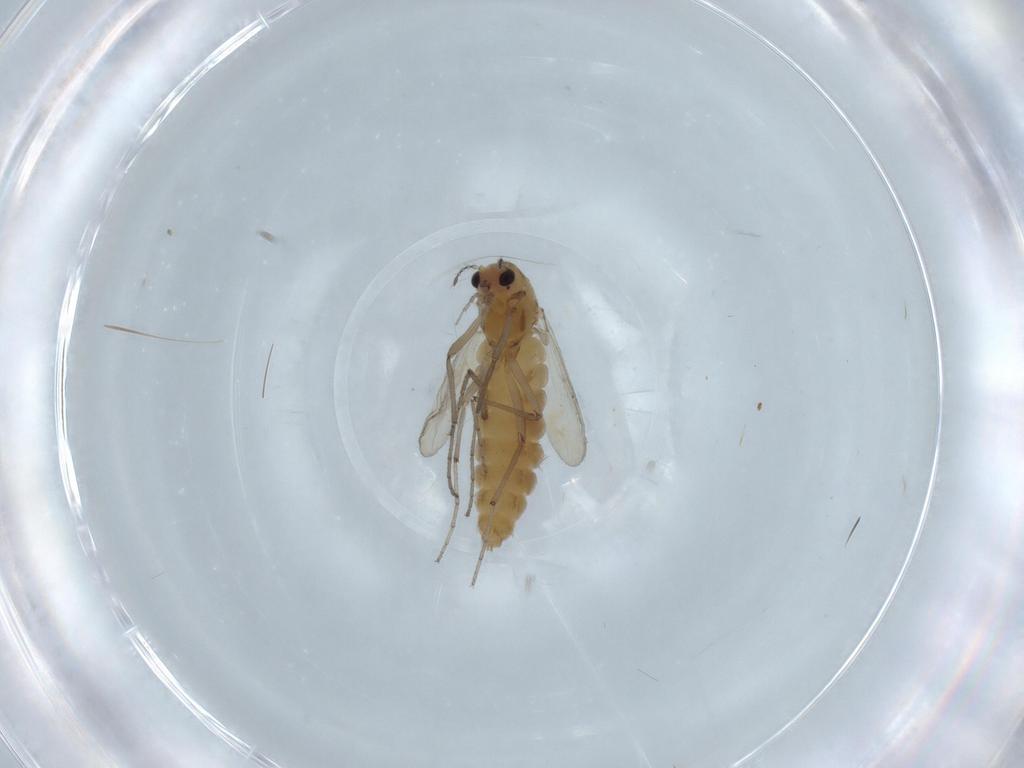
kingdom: Animalia
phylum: Arthropoda
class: Insecta
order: Diptera
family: Chironomidae
